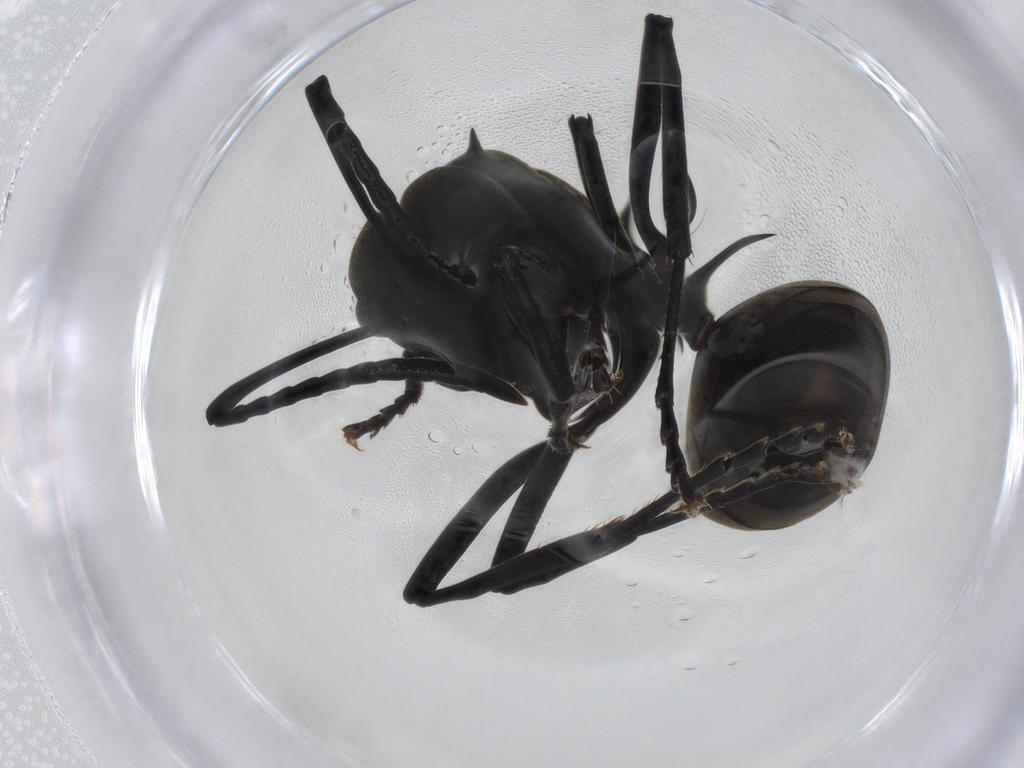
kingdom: Animalia
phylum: Arthropoda
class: Insecta
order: Hymenoptera
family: Formicidae
